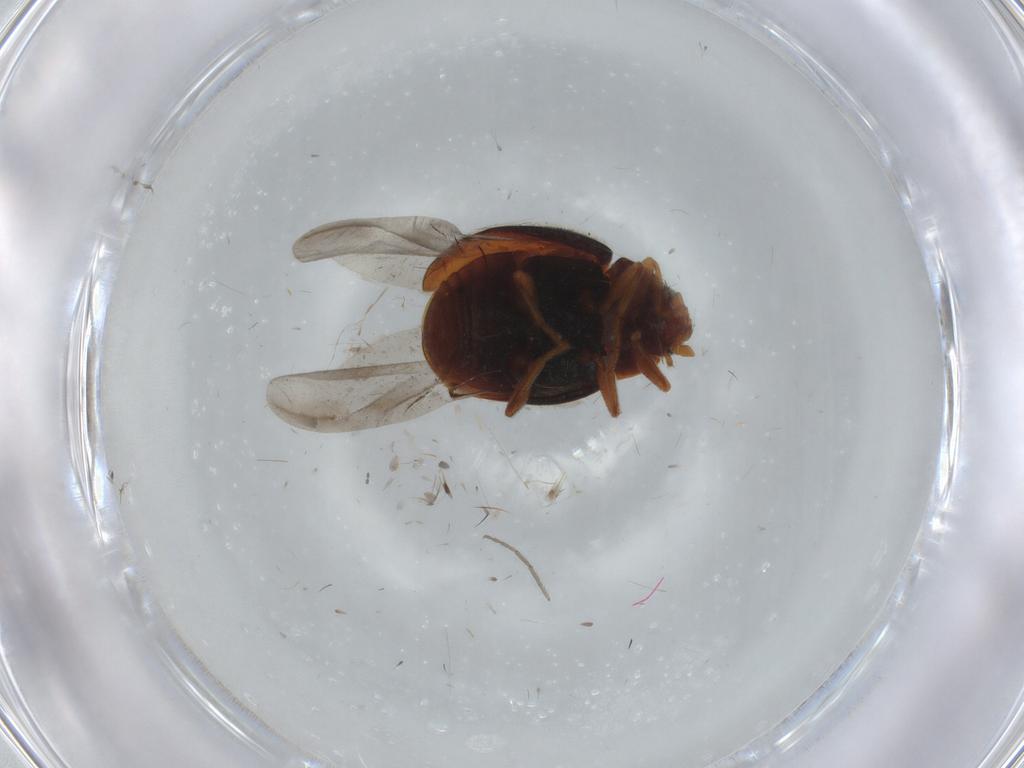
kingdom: Animalia
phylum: Arthropoda
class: Insecta
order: Coleoptera
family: Coccinellidae
